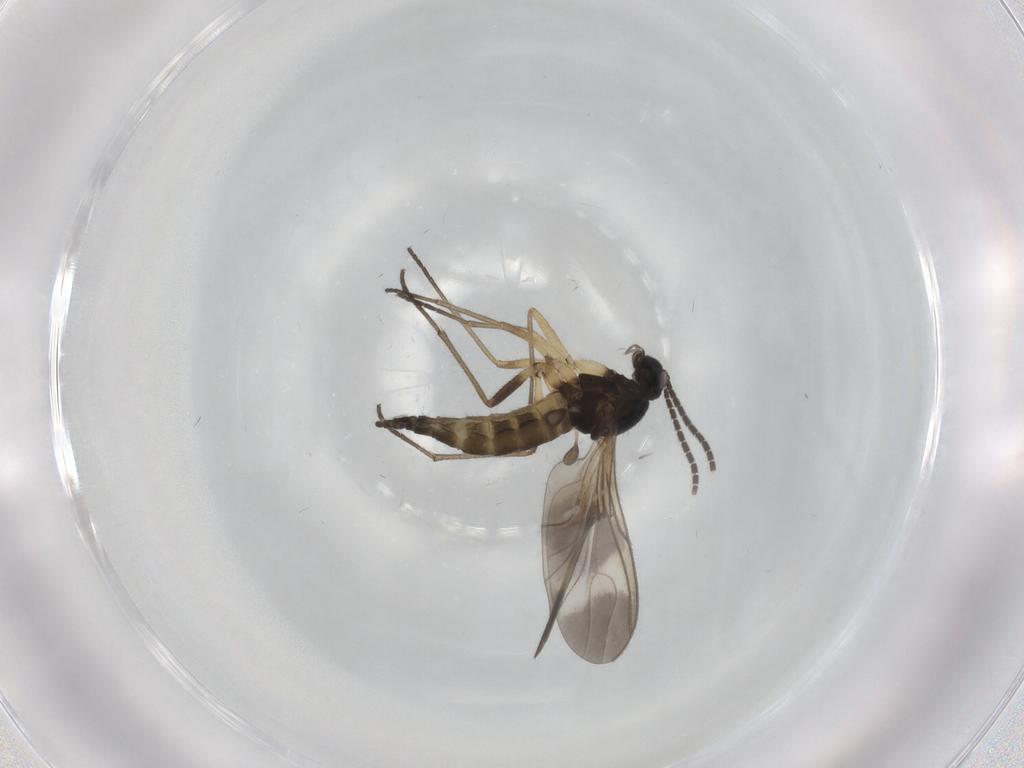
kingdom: Animalia
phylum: Arthropoda
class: Insecta
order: Diptera
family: Sciaridae
